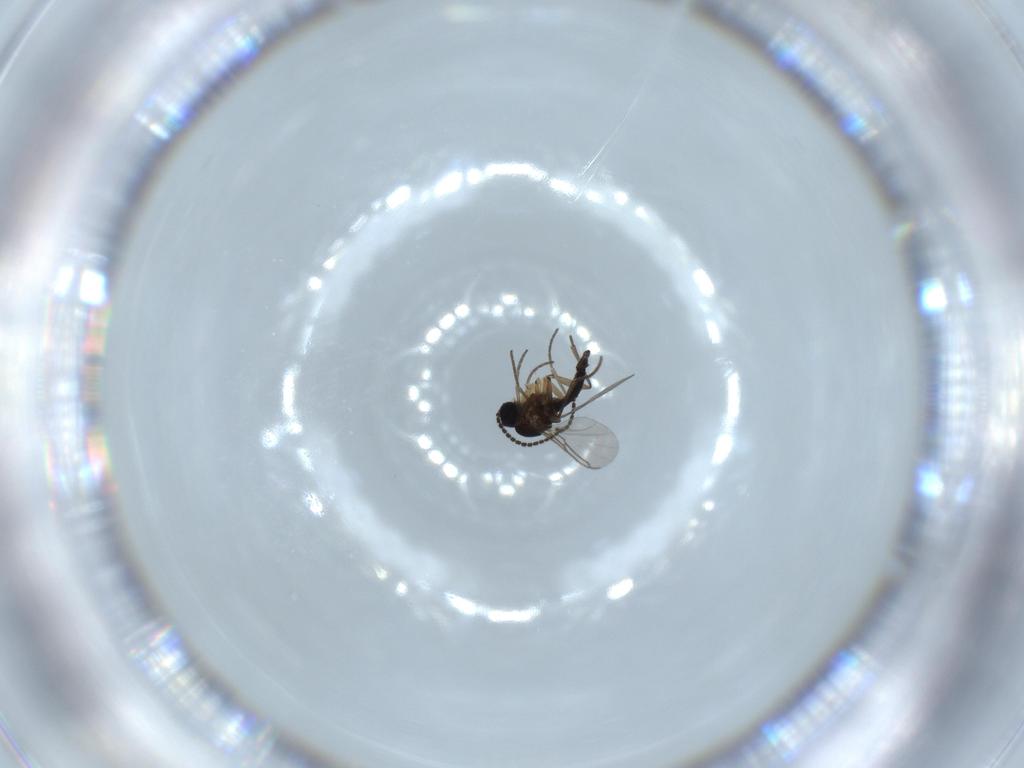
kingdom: Animalia
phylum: Arthropoda
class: Insecta
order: Diptera
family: Sciaridae
